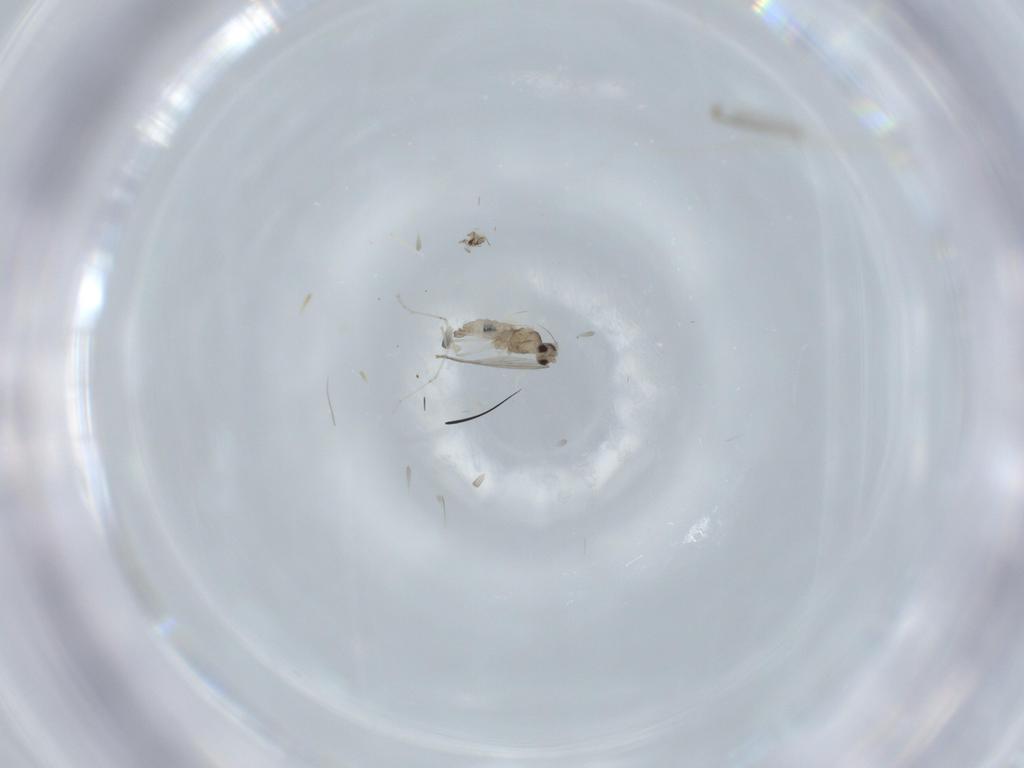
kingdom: Animalia
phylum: Arthropoda
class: Insecta
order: Diptera
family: Cecidomyiidae
